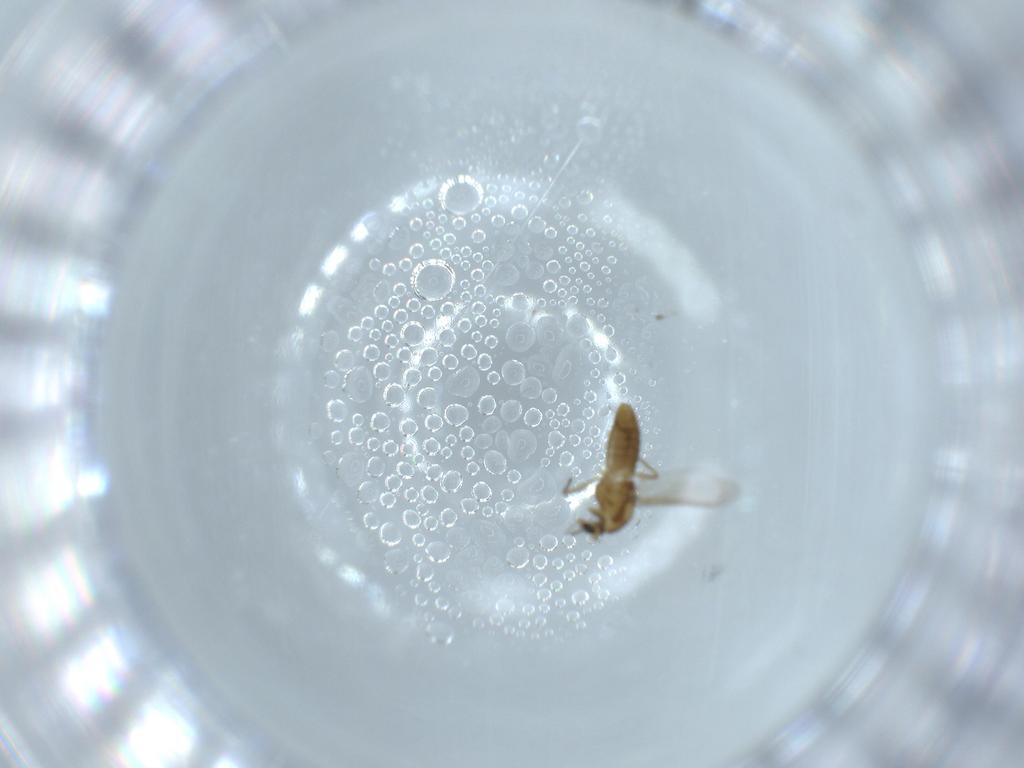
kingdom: Animalia
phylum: Arthropoda
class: Insecta
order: Diptera
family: Chironomidae
